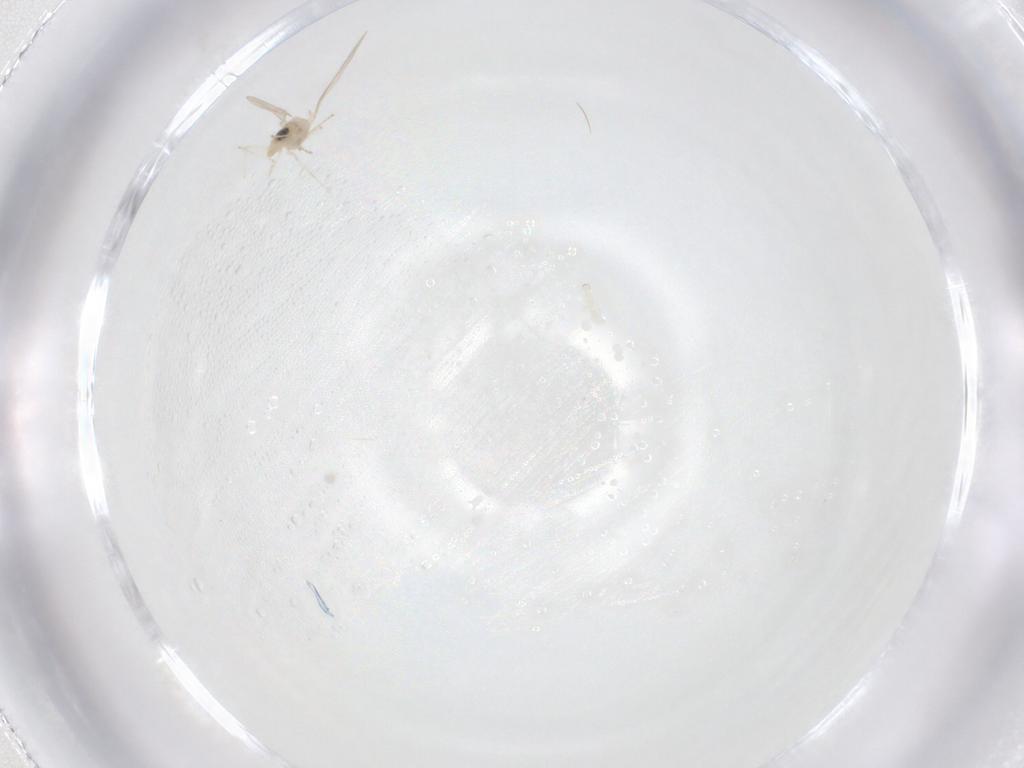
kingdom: Animalia
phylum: Arthropoda
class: Insecta
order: Diptera
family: Cecidomyiidae
